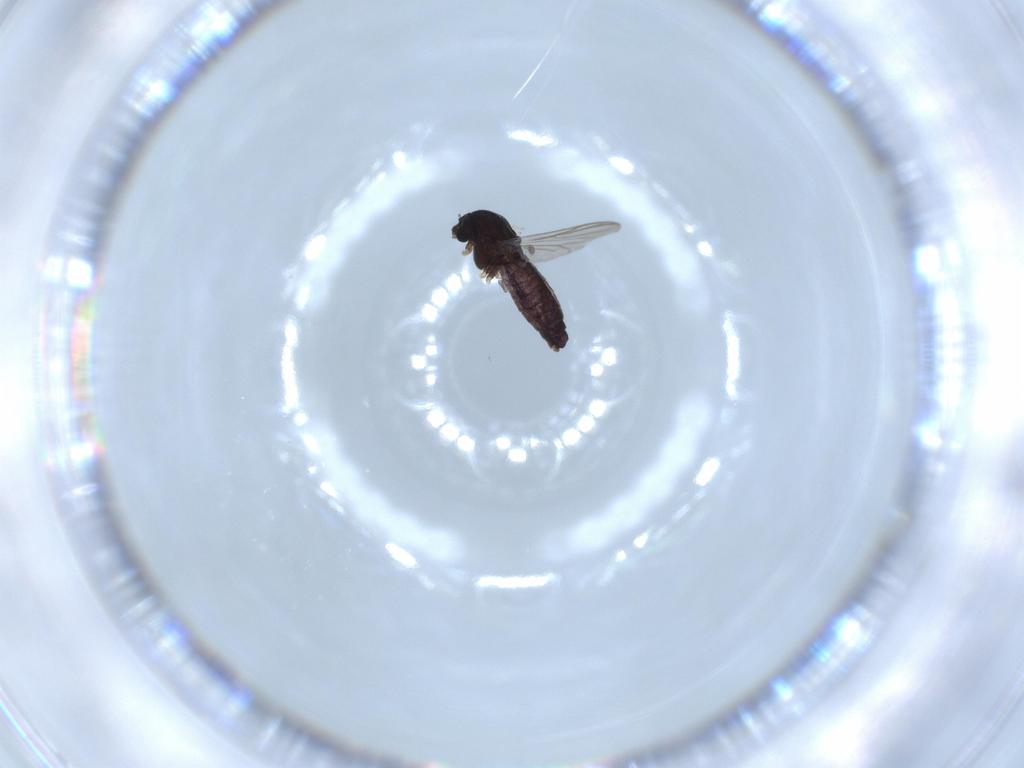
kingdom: Animalia
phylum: Arthropoda
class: Insecta
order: Diptera
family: Chironomidae
